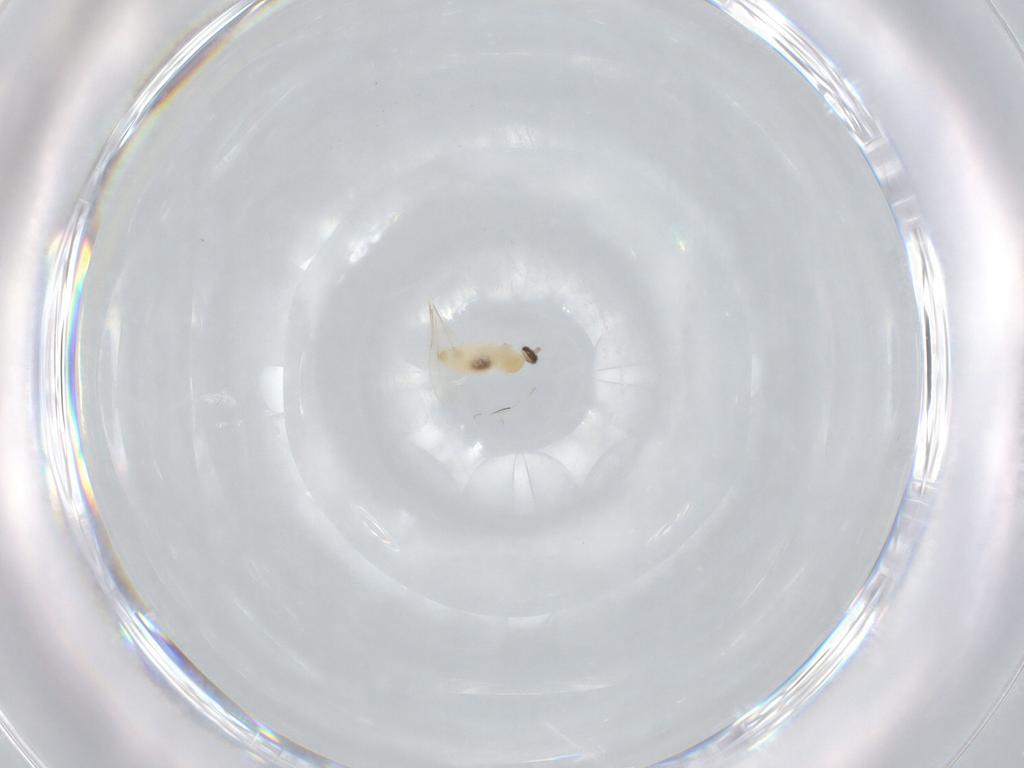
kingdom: Animalia
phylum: Arthropoda
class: Insecta
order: Diptera
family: Cecidomyiidae
